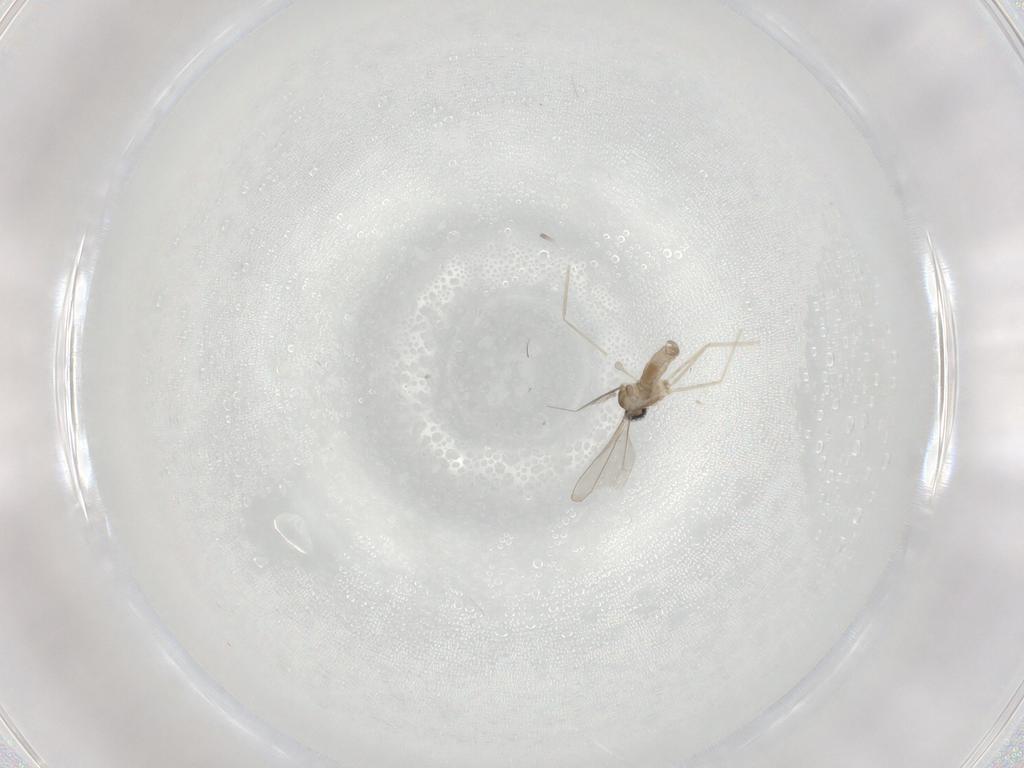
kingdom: Animalia
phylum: Arthropoda
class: Insecta
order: Diptera
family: Cecidomyiidae
